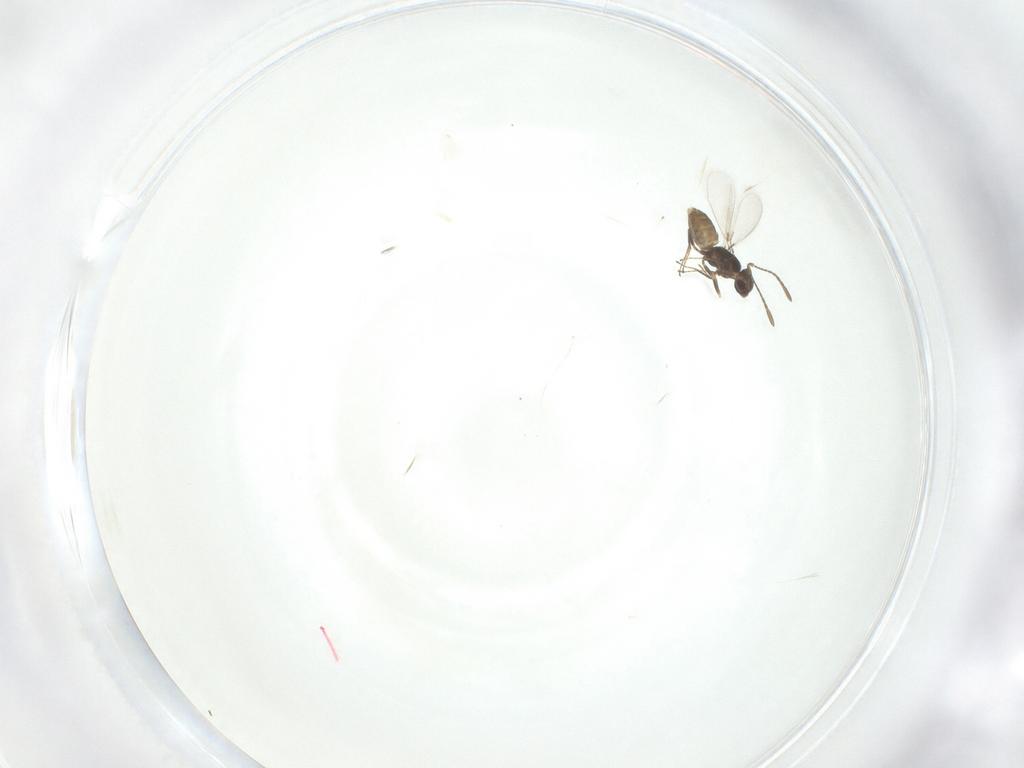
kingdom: Animalia
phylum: Arthropoda
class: Insecta
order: Hymenoptera
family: Mymaridae
